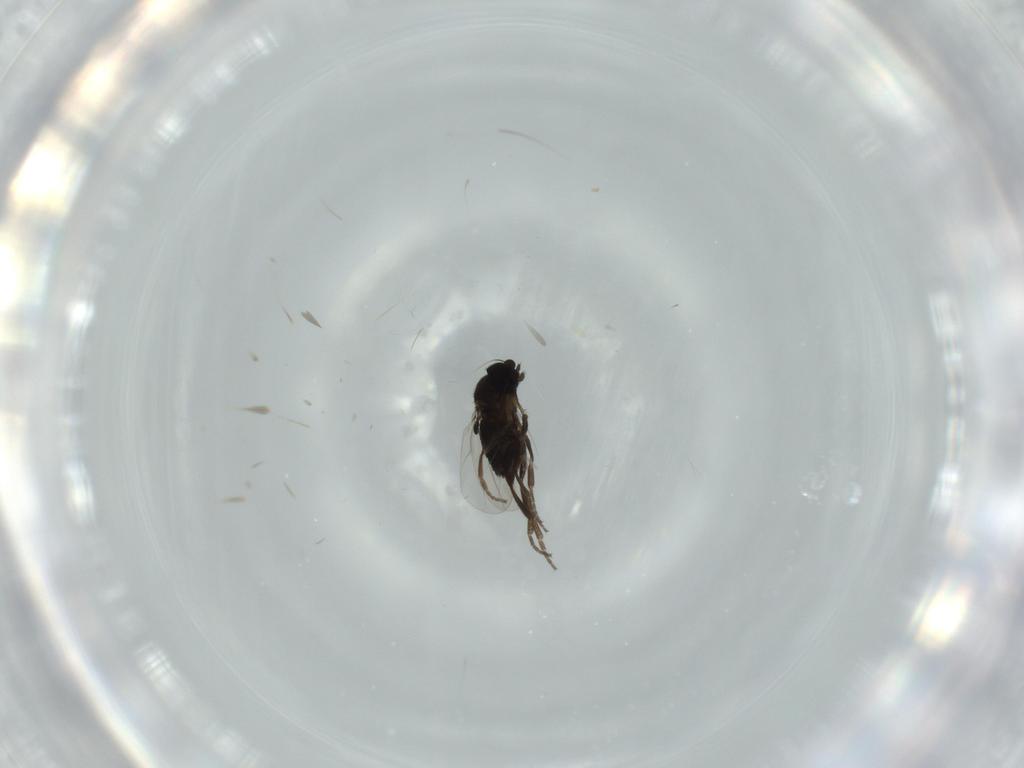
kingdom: Animalia
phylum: Arthropoda
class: Insecta
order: Diptera
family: Phoridae
